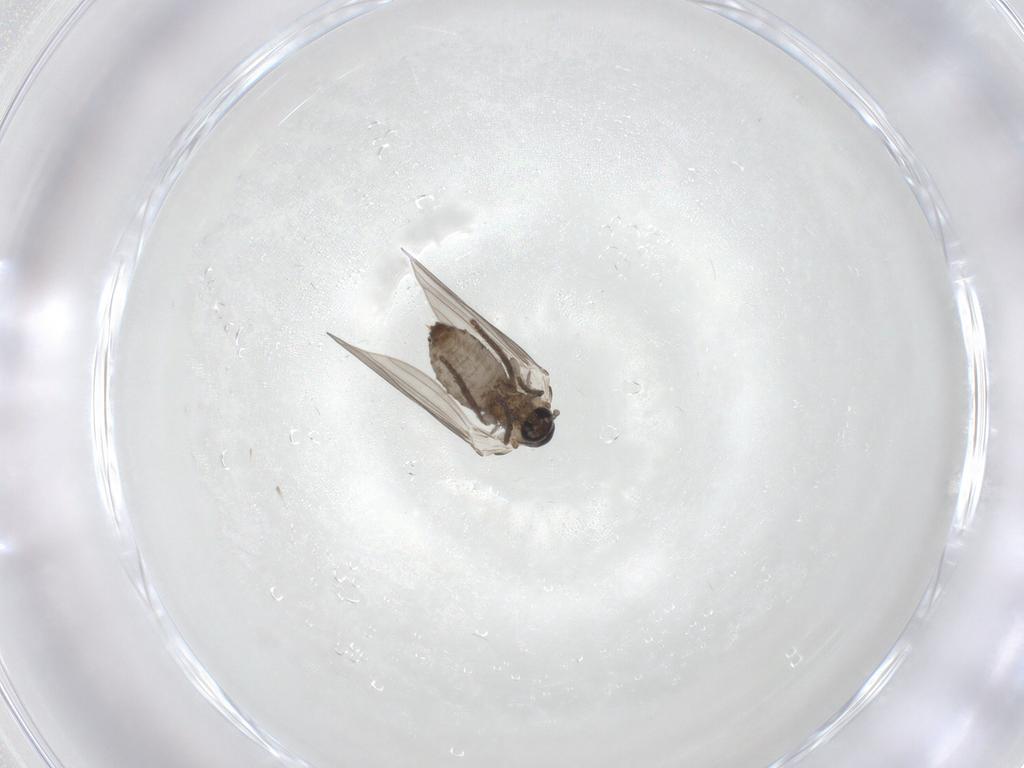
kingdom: Animalia
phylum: Arthropoda
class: Insecta
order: Diptera
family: Psychodidae
